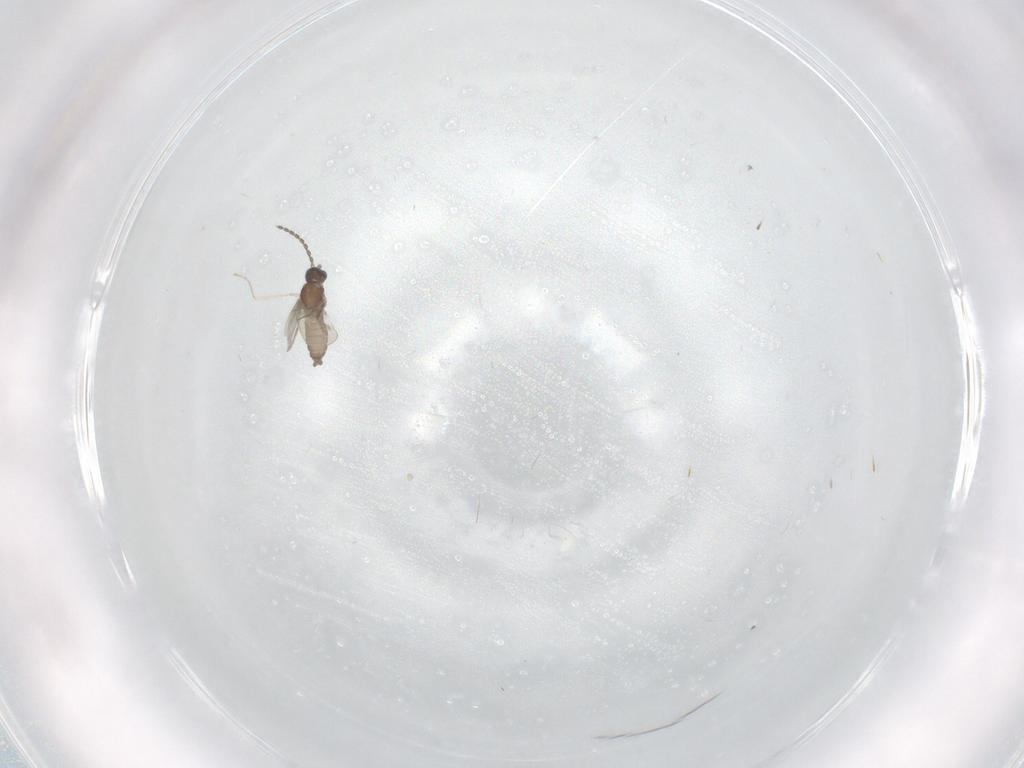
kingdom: Animalia
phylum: Arthropoda
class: Insecta
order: Diptera
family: Cecidomyiidae
